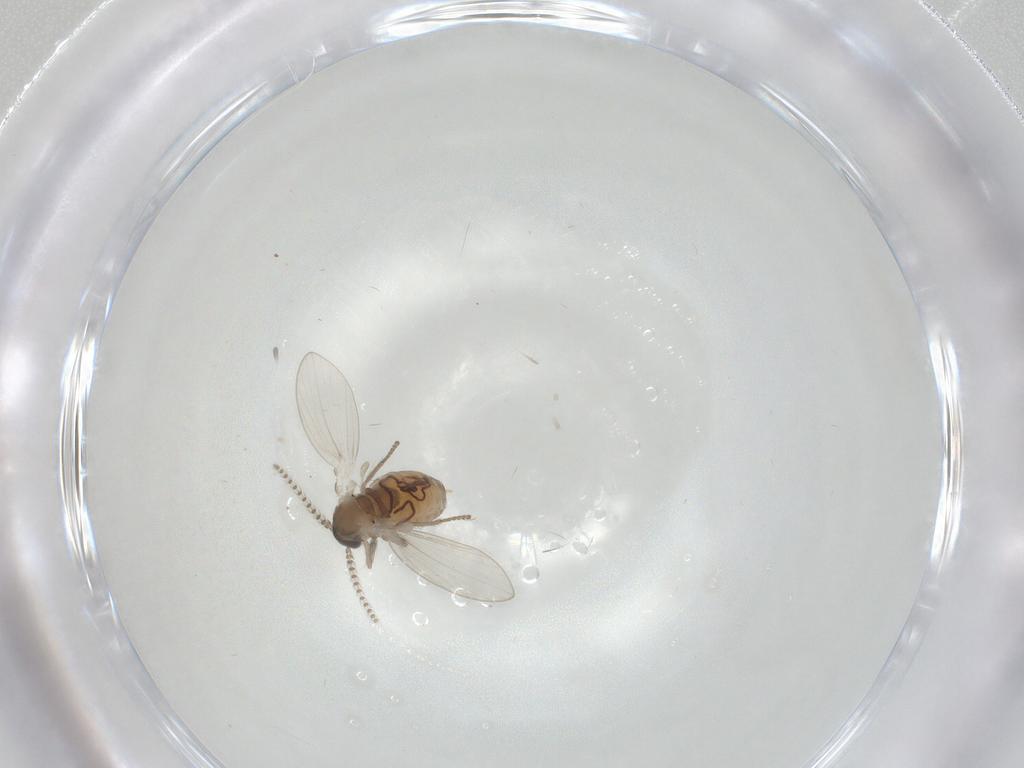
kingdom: Animalia
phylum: Arthropoda
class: Insecta
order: Diptera
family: Psychodidae
